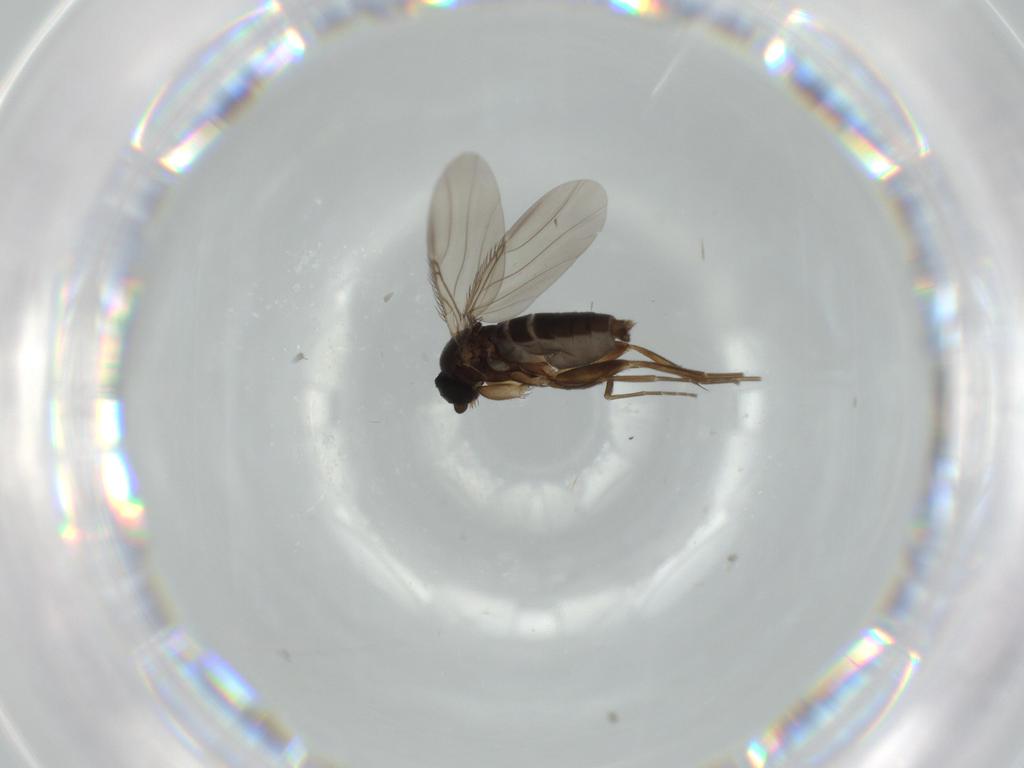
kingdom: Animalia
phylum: Arthropoda
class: Insecta
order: Diptera
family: Phoridae
